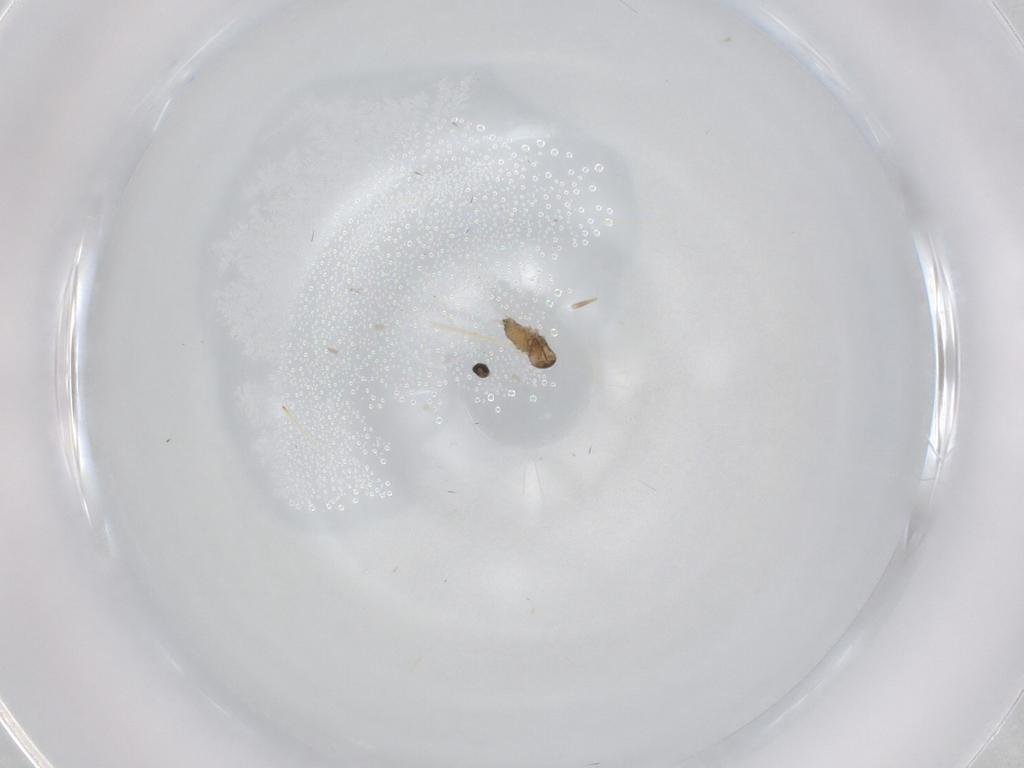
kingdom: Animalia
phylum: Arthropoda
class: Insecta
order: Diptera
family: Cecidomyiidae
